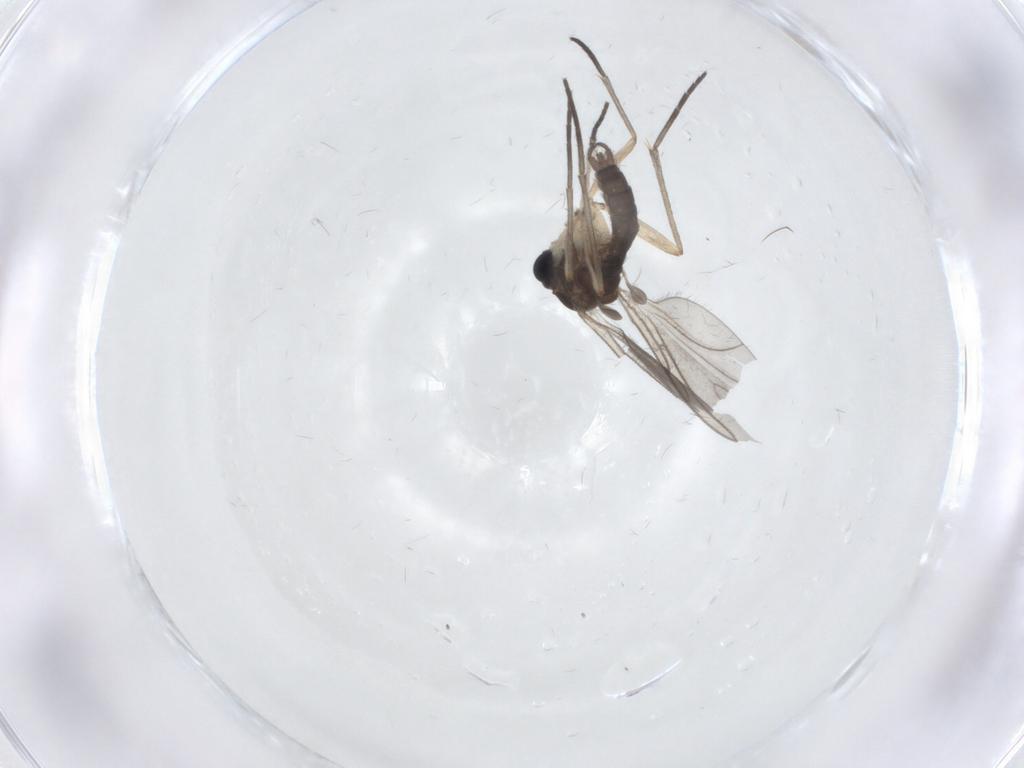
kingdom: Animalia
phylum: Arthropoda
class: Insecta
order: Diptera
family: Sciaridae
